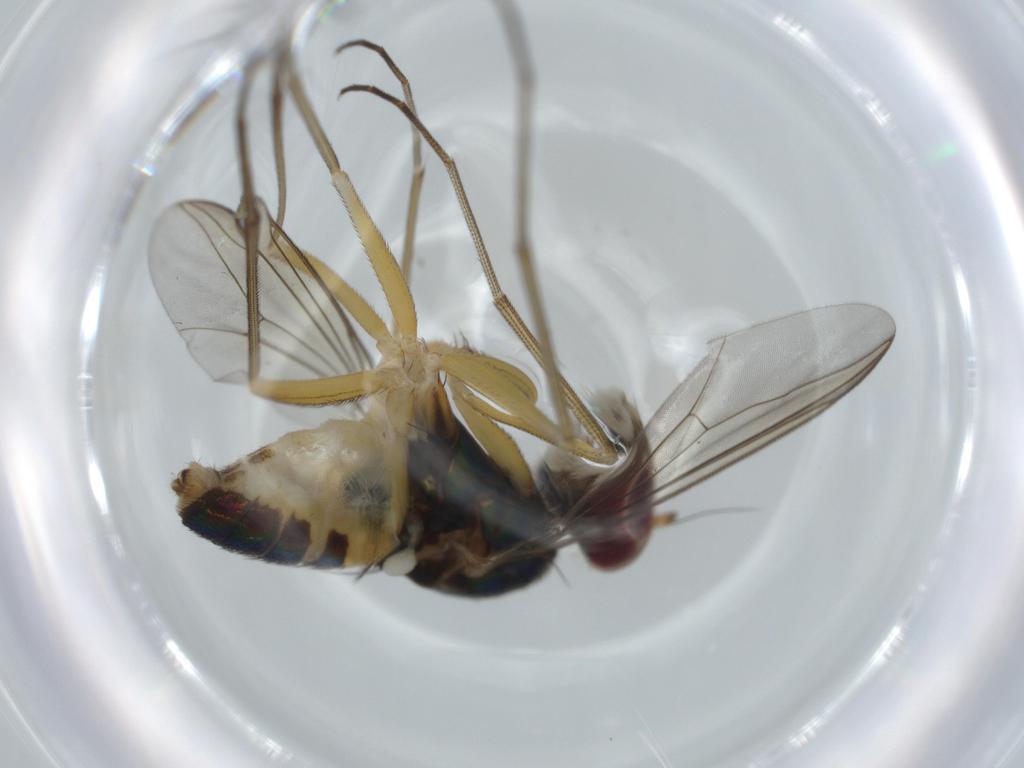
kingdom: Animalia
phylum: Arthropoda
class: Insecta
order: Diptera
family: Dolichopodidae
